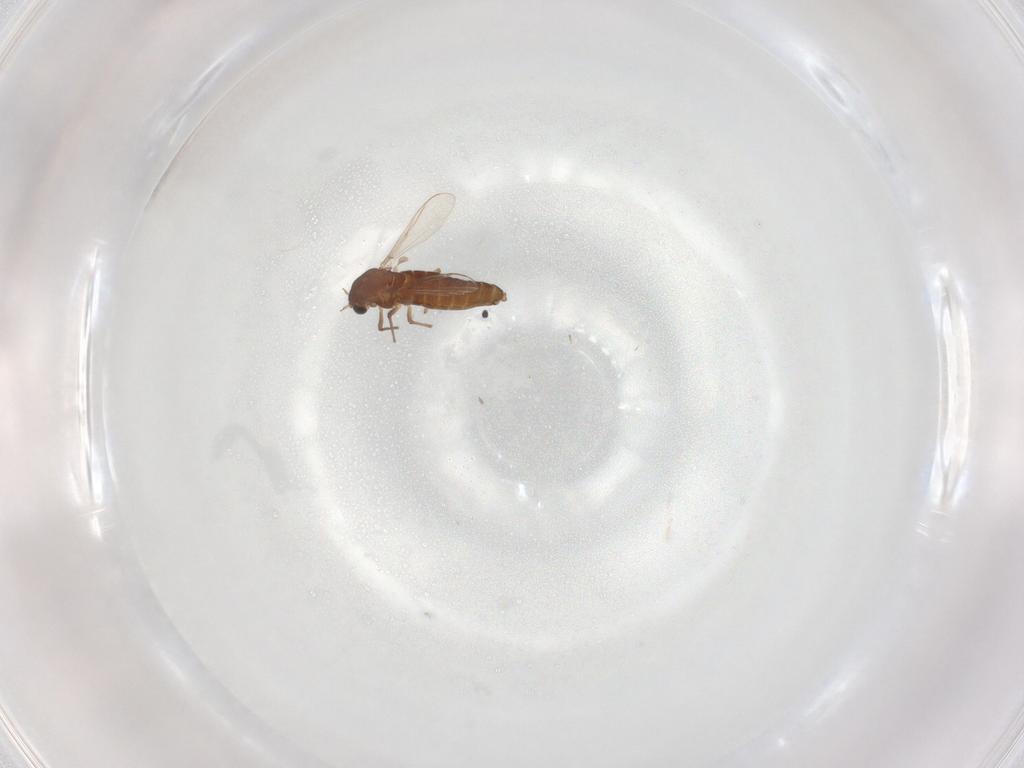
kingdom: Animalia
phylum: Arthropoda
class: Insecta
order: Diptera
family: Chironomidae
